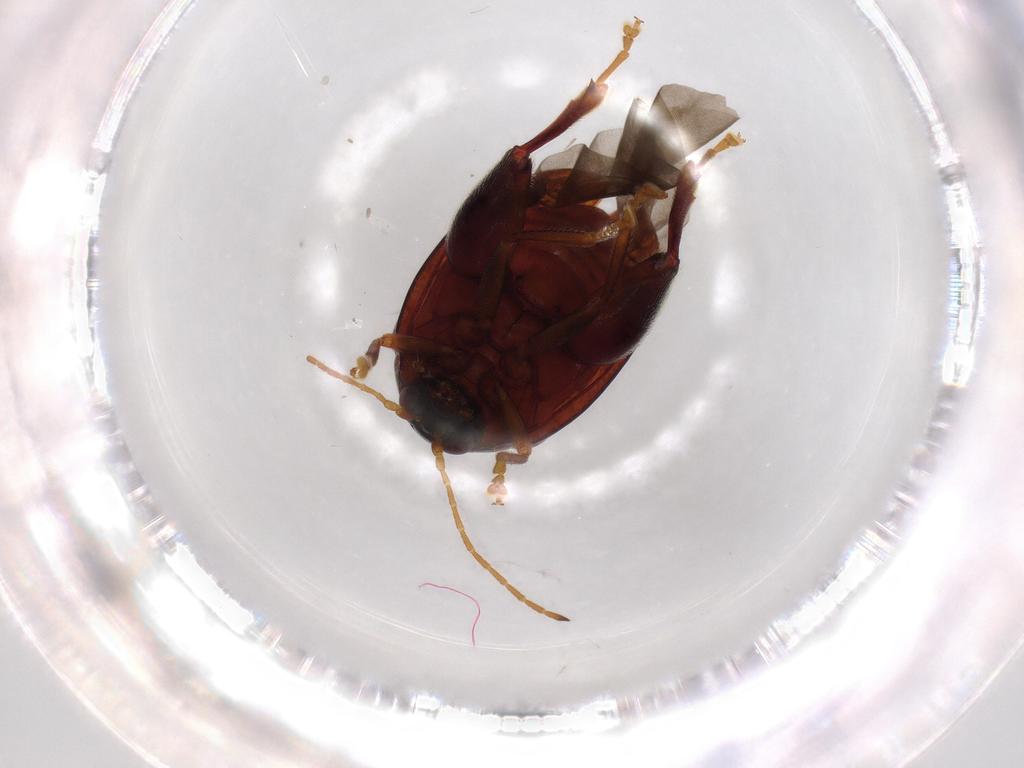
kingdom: Animalia
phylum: Arthropoda
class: Insecta
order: Coleoptera
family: Chrysomelidae
